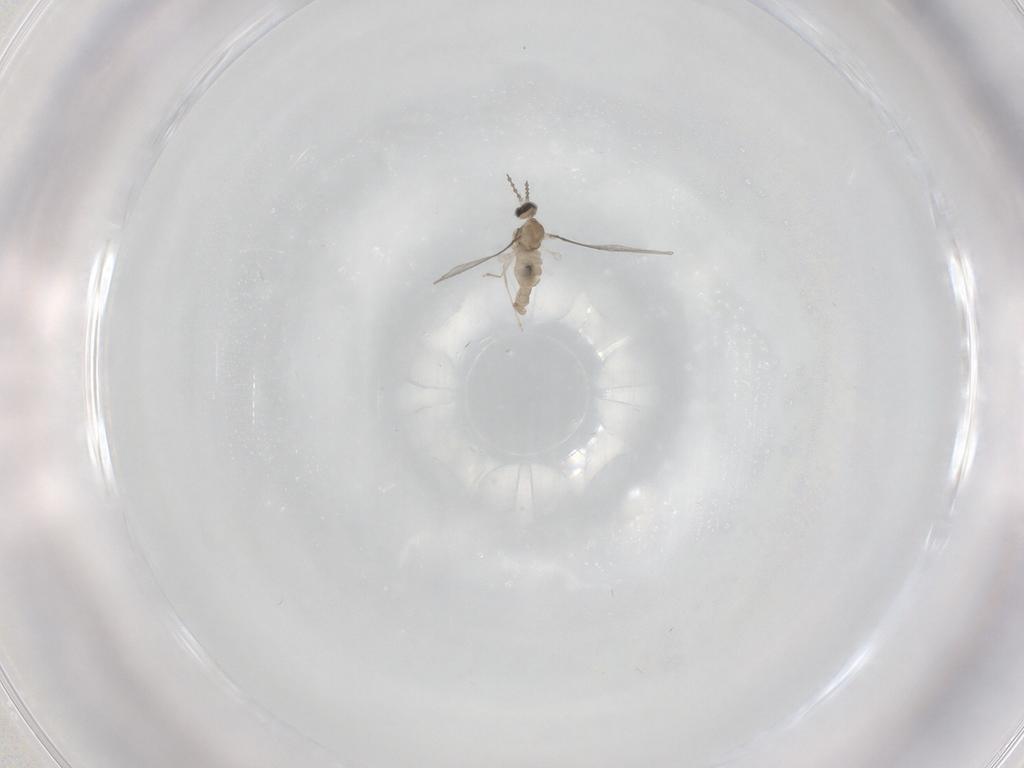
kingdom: Animalia
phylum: Arthropoda
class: Insecta
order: Diptera
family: Cecidomyiidae
